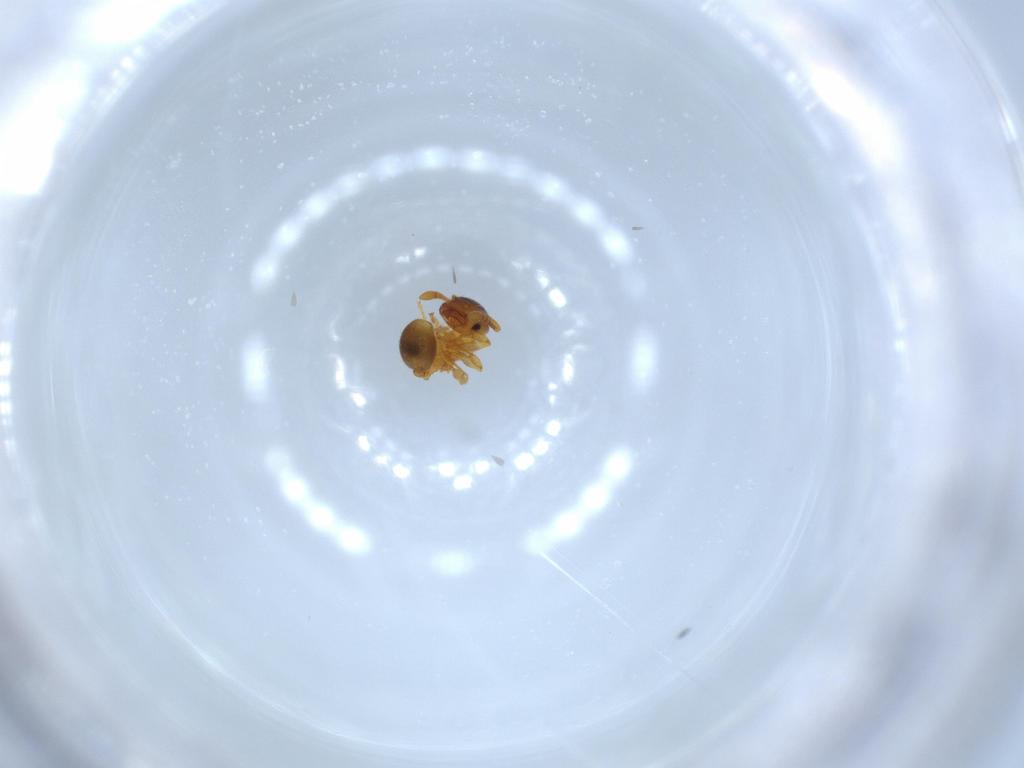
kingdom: Animalia
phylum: Arthropoda
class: Insecta
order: Hymenoptera
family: Formicidae
